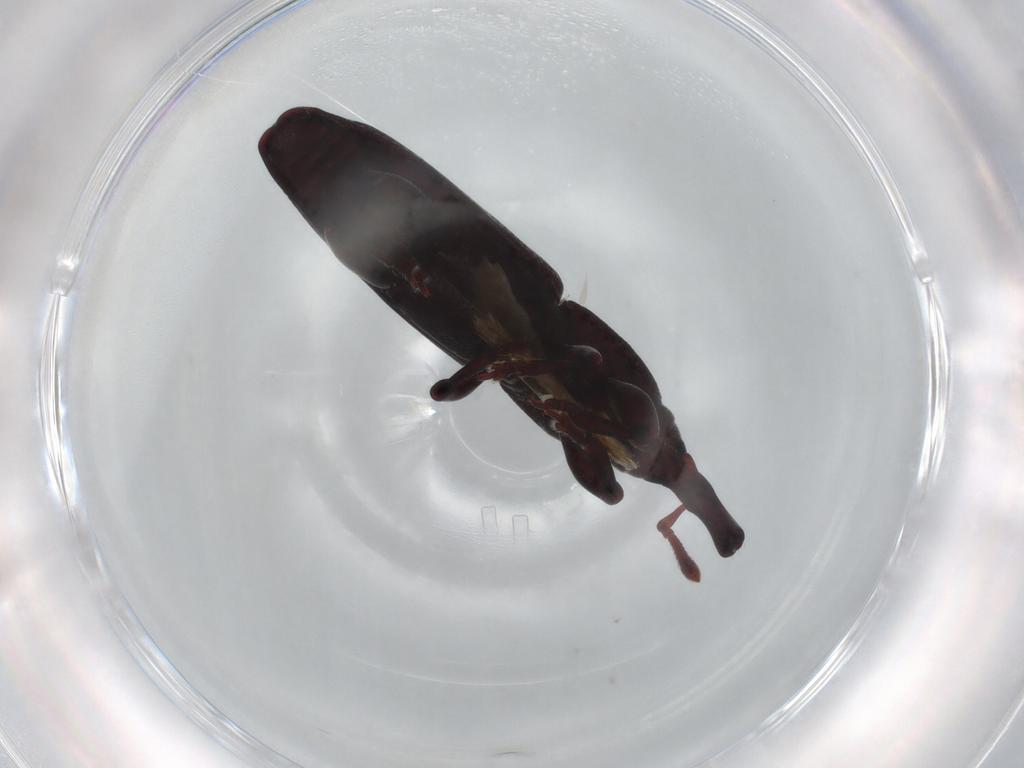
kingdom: Animalia
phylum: Arthropoda
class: Insecta
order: Coleoptera
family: Curculionidae
